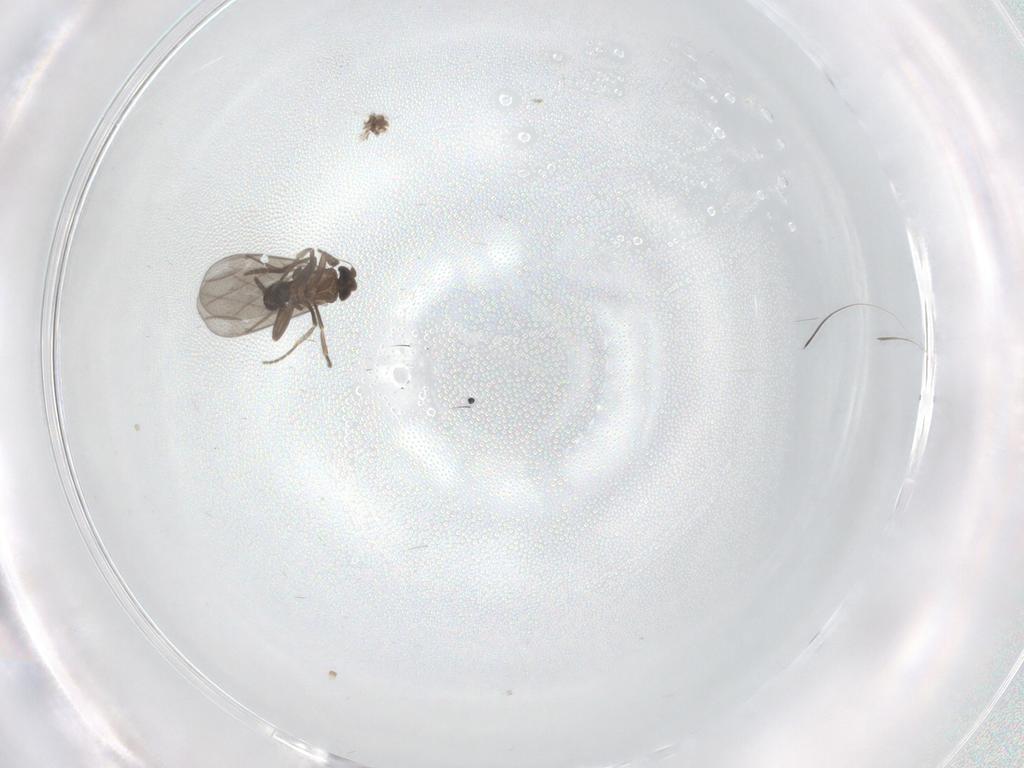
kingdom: Animalia
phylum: Arthropoda
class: Insecta
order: Diptera
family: Phoridae
